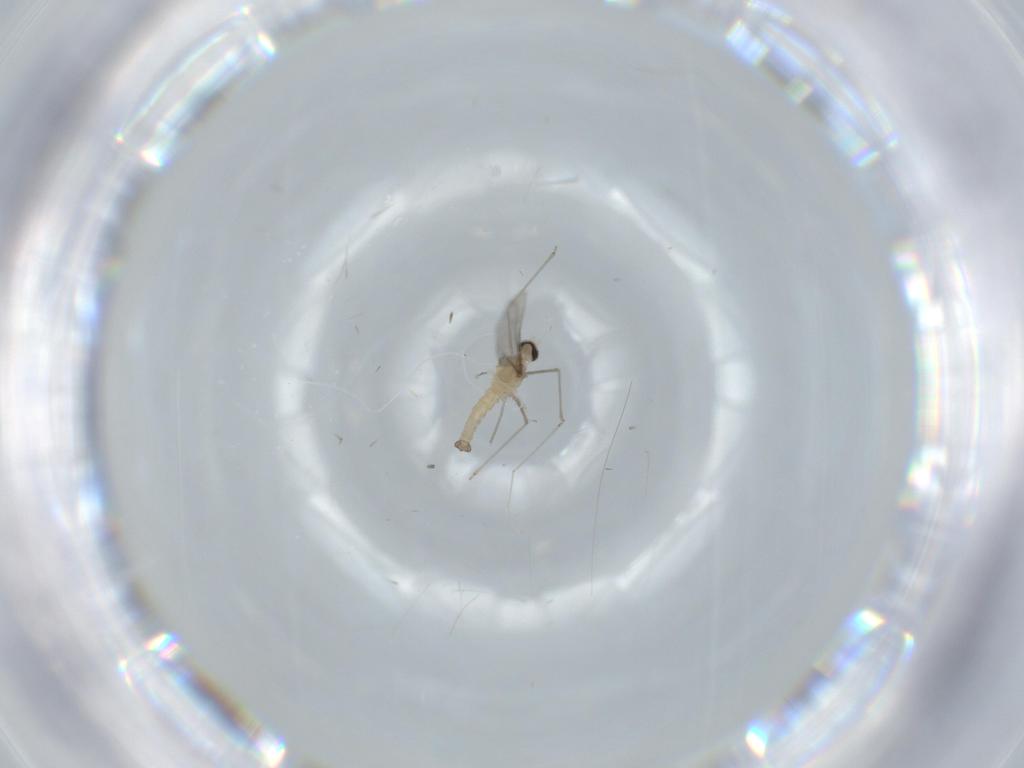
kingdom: Animalia
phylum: Arthropoda
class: Insecta
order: Diptera
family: Cecidomyiidae
